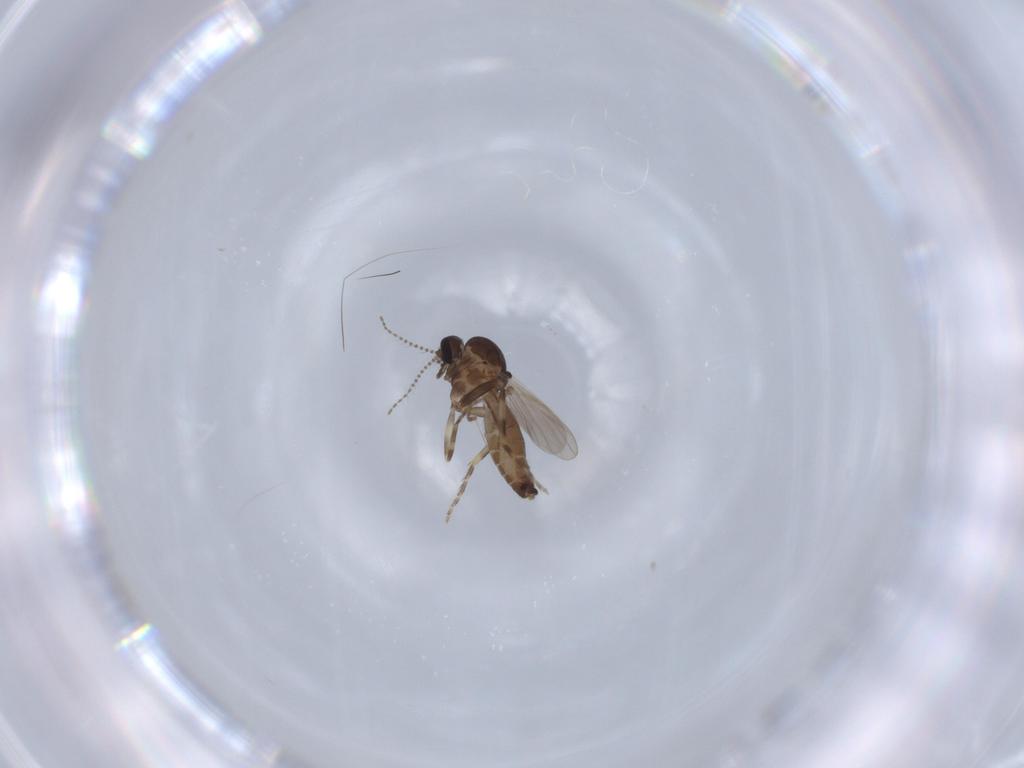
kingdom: Animalia
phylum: Arthropoda
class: Insecta
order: Diptera
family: Ceratopogonidae
